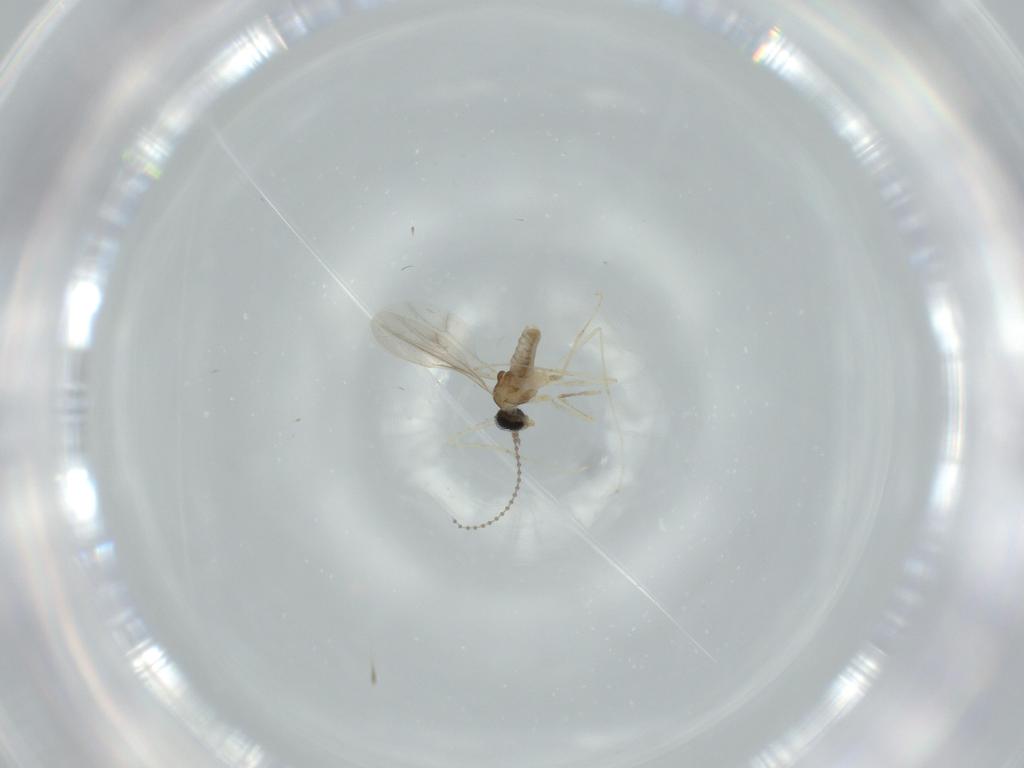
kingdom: Animalia
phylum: Arthropoda
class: Insecta
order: Diptera
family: Cecidomyiidae
